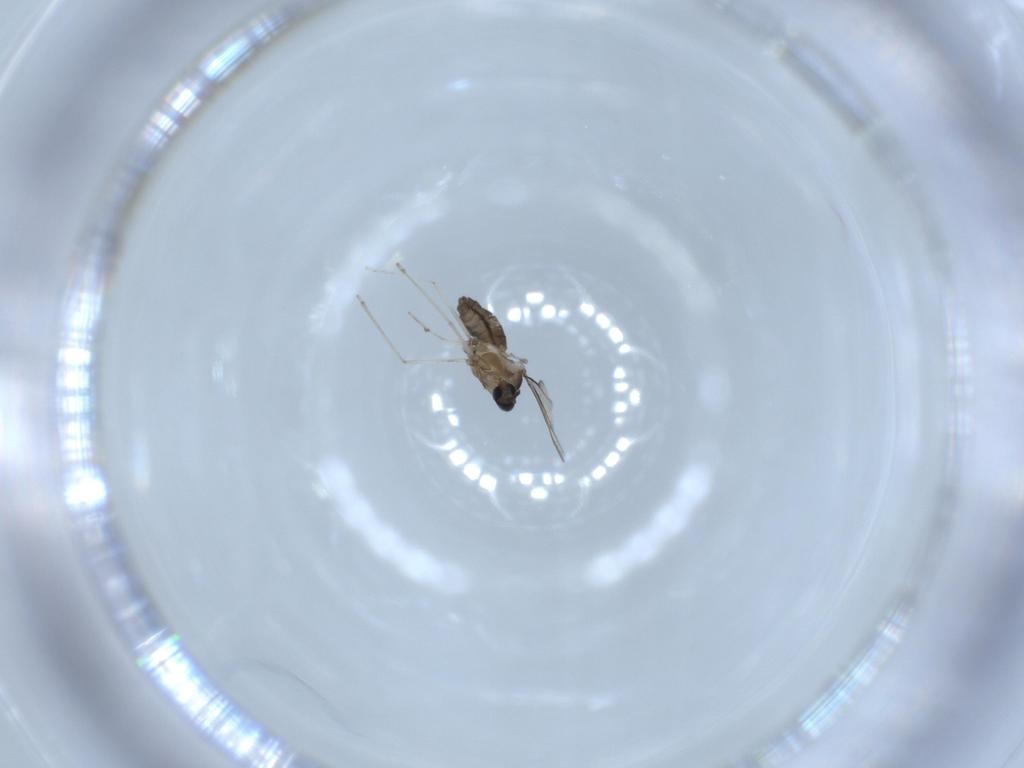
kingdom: Animalia
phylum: Arthropoda
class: Insecta
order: Diptera
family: Cecidomyiidae
